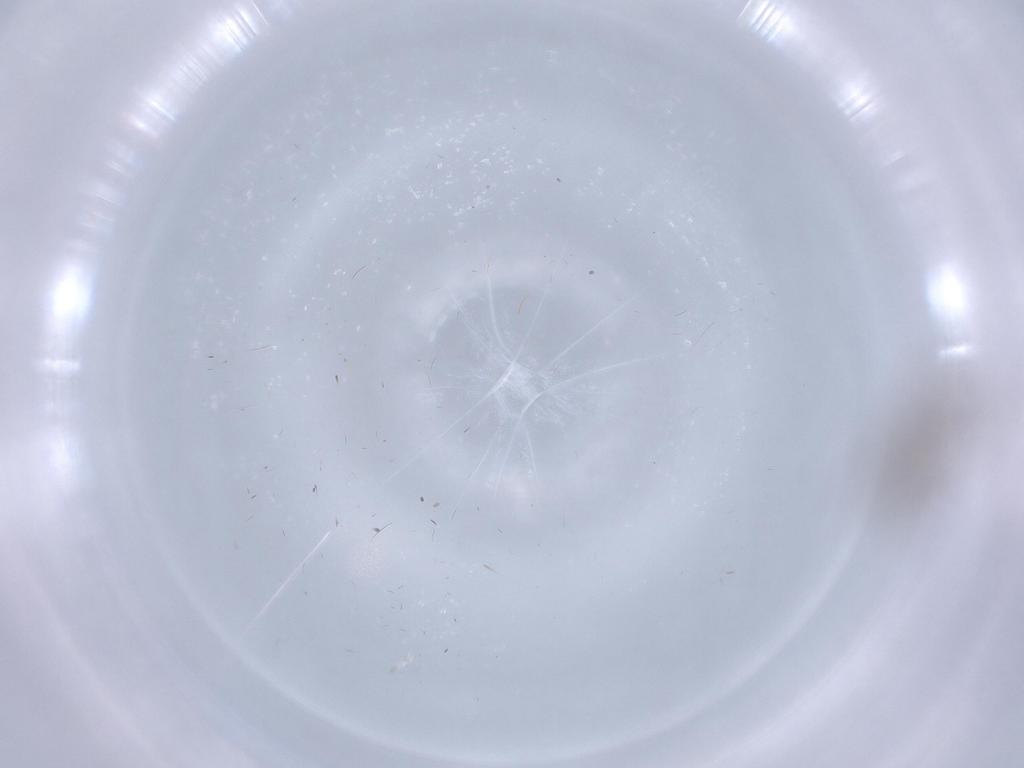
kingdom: Animalia
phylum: Arthropoda
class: Insecta
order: Diptera
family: Chironomidae
